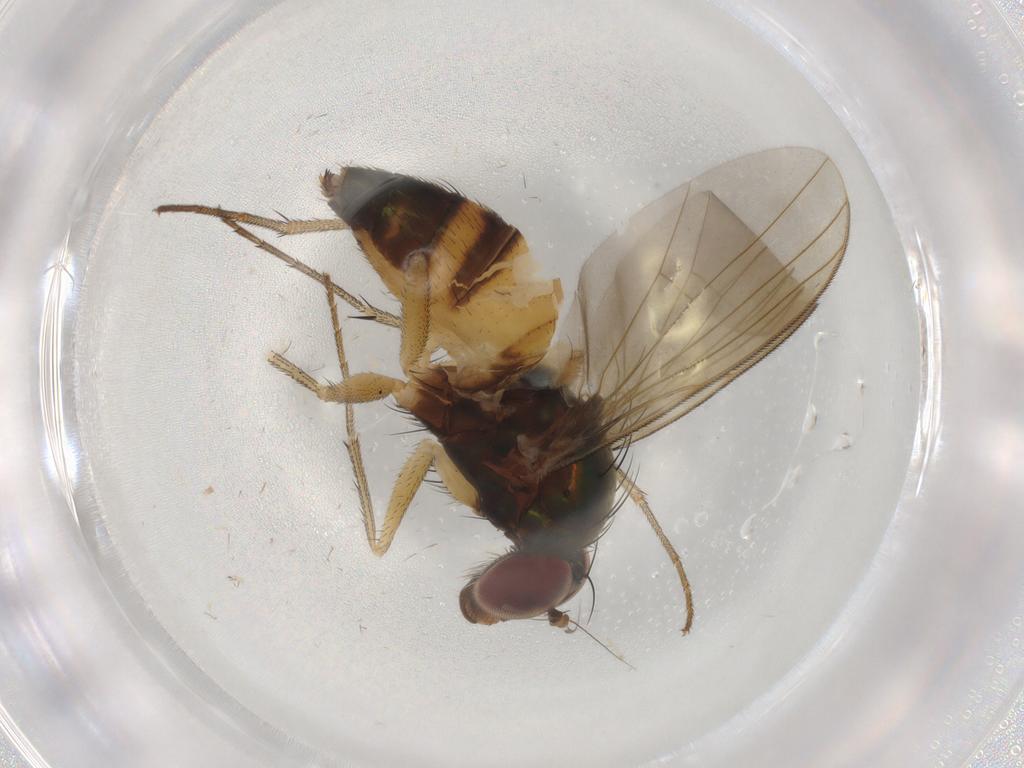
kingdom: Animalia
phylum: Arthropoda
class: Insecta
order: Diptera
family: Dolichopodidae
